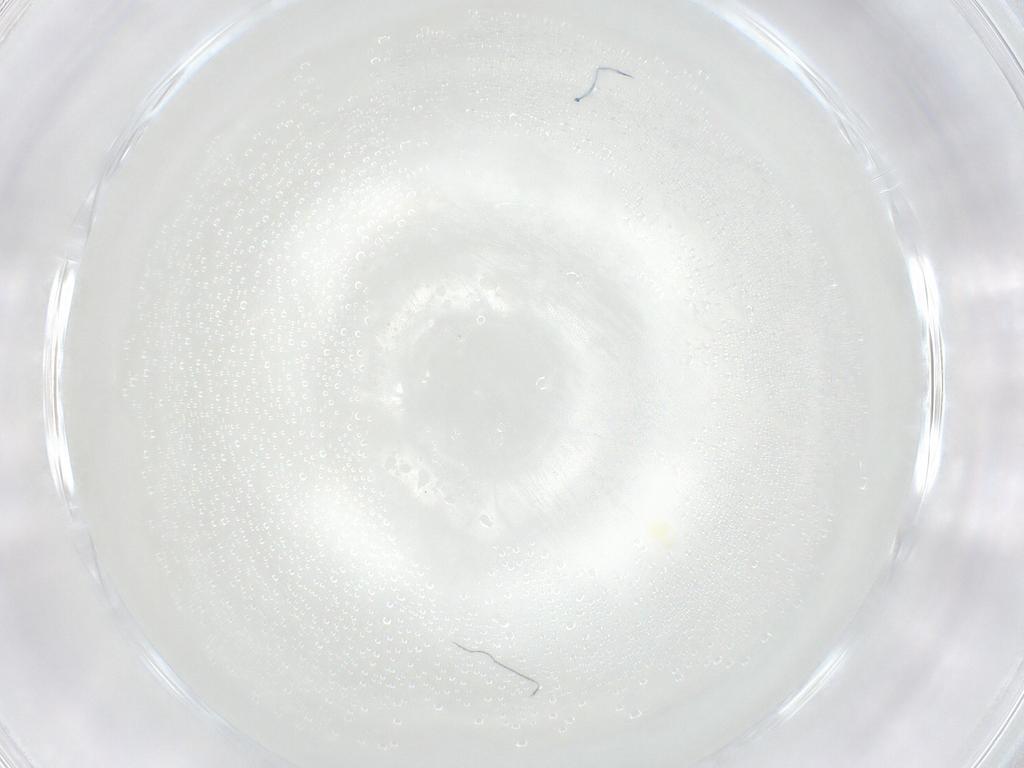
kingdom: Animalia
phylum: Arthropoda
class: Arachnida
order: Trombidiformes
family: Eupodidae
